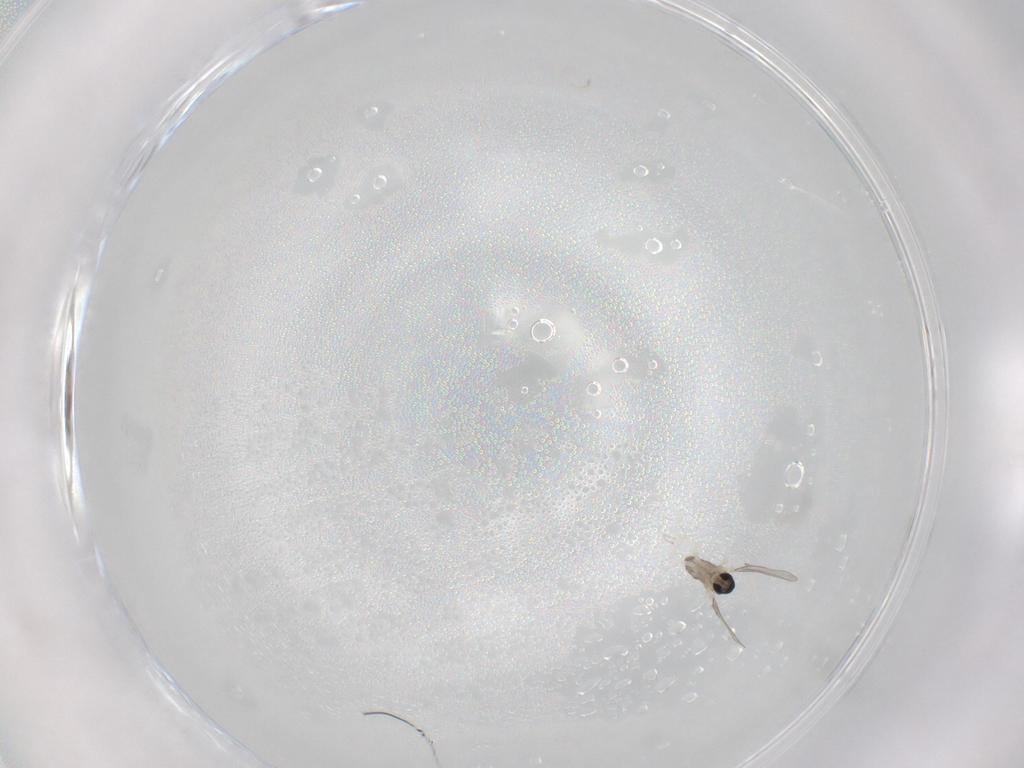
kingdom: Animalia
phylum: Arthropoda
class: Insecta
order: Diptera
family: Cecidomyiidae
